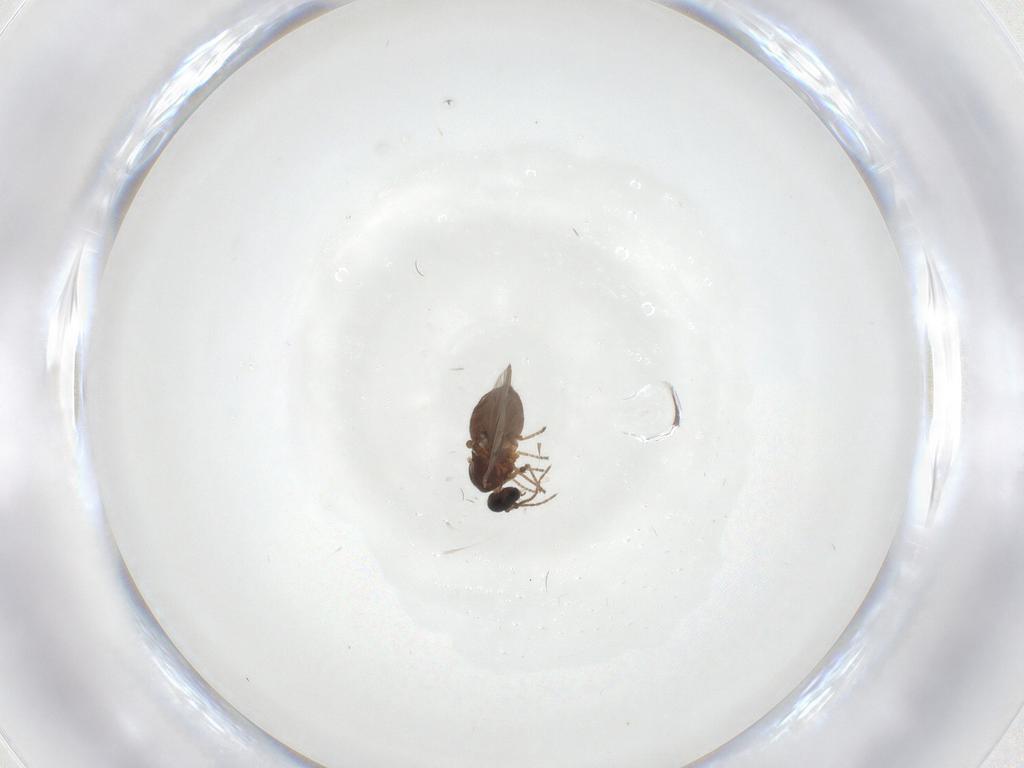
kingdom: Animalia
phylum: Arthropoda
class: Insecta
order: Diptera
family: Ceratopogonidae
